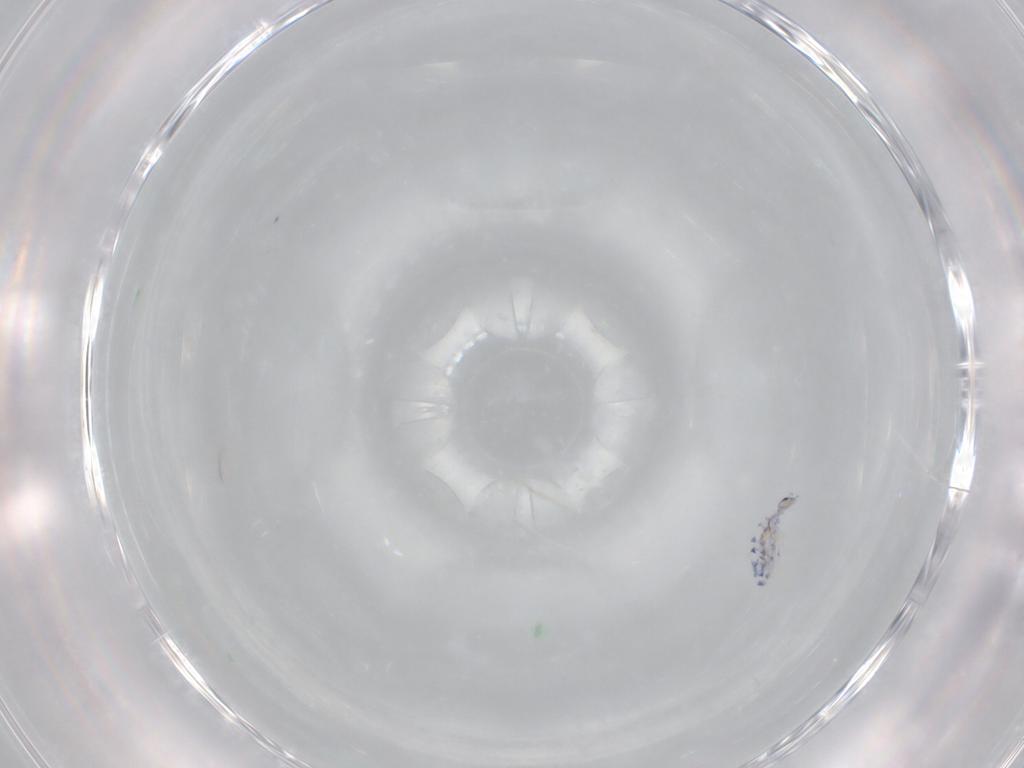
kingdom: Animalia
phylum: Arthropoda
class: Collembola
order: Entomobryomorpha
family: Entomobryidae
